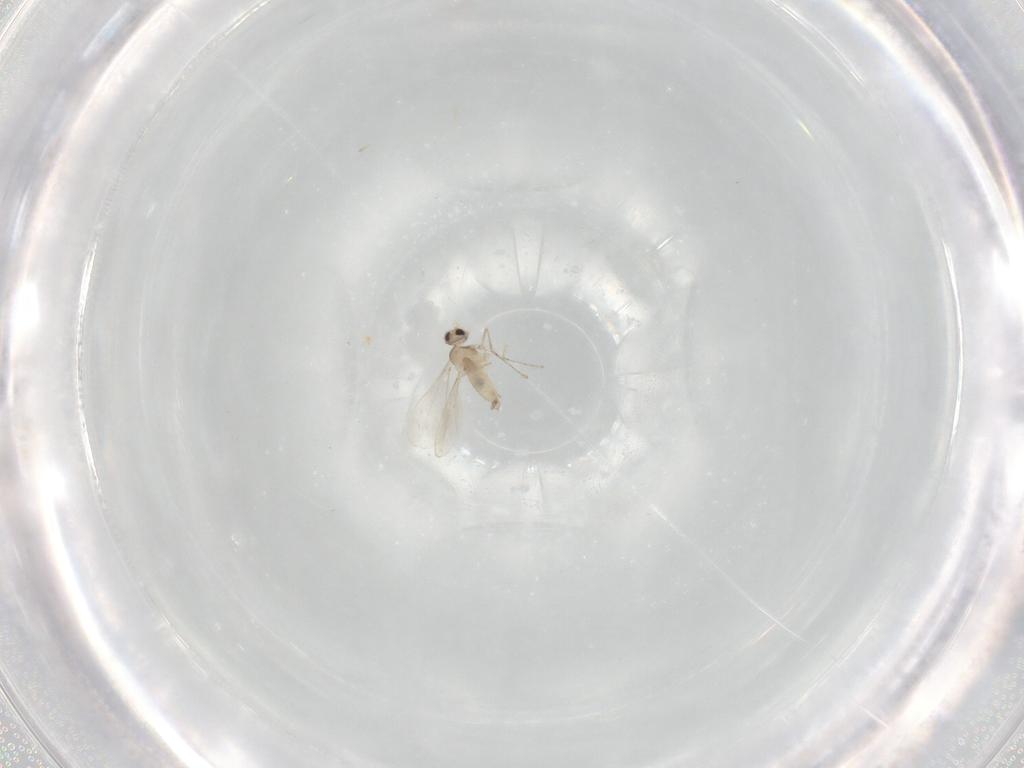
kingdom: Animalia
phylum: Arthropoda
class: Insecta
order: Diptera
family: Cecidomyiidae
